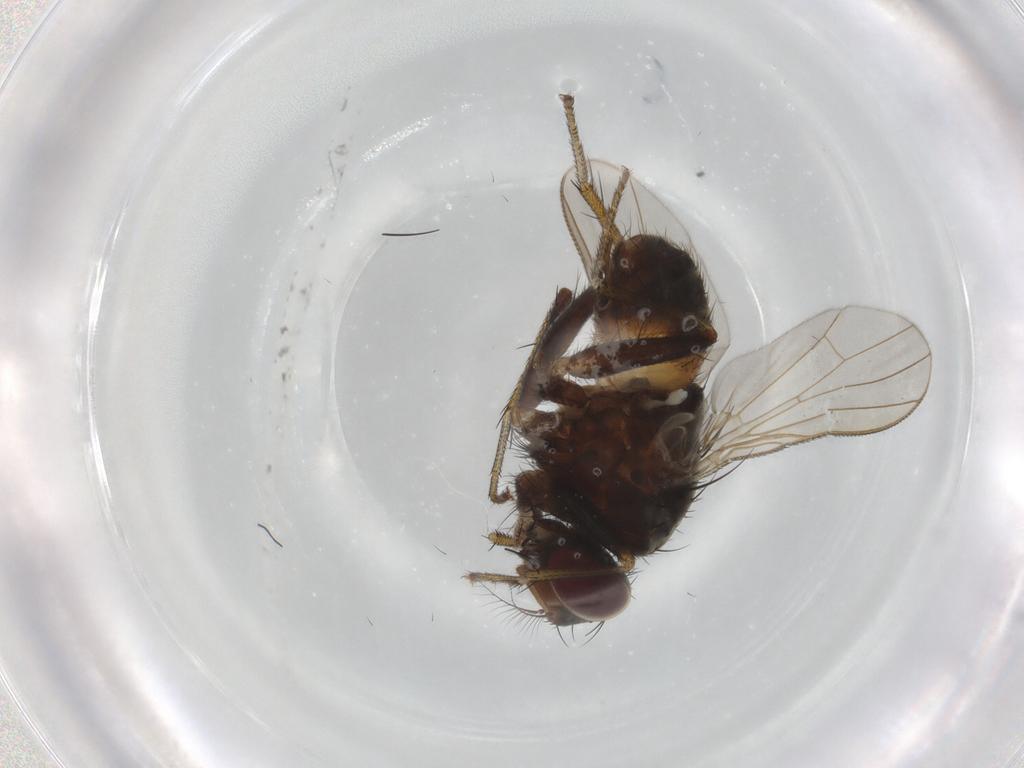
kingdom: Animalia
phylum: Arthropoda
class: Insecta
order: Diptera
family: Muscidae
